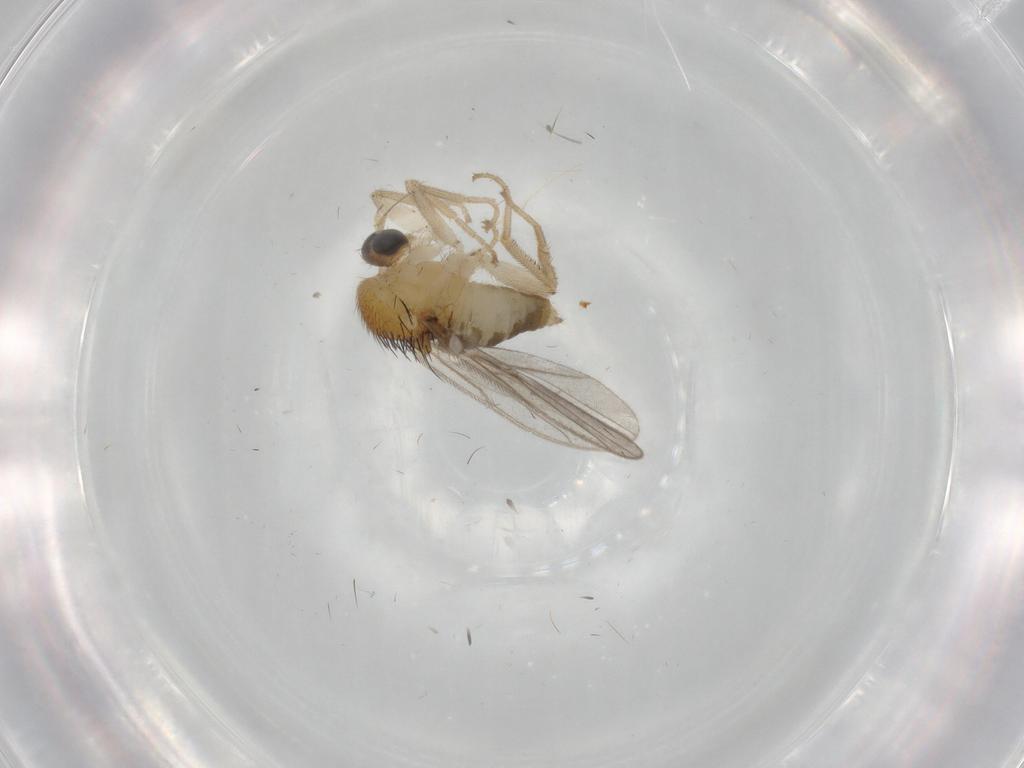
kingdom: Animalia
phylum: Arthropoda
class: Insecta
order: Diptera
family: Hybotidae
